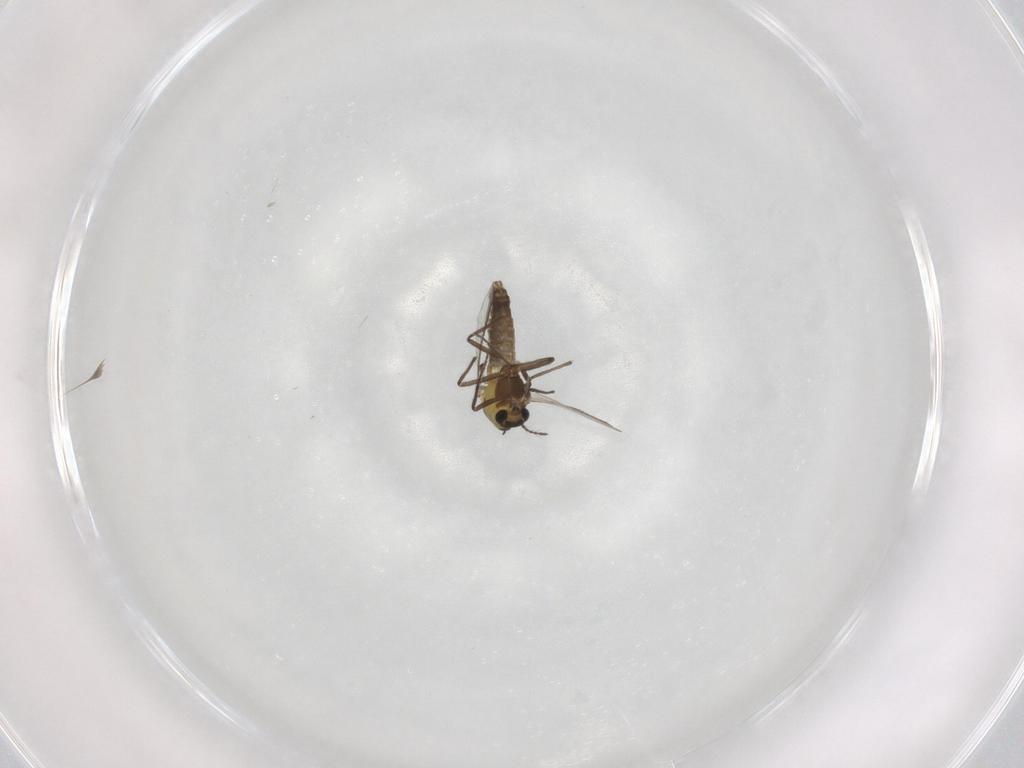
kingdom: Animalia
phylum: Arthropoda
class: Insecta
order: Diptera
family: Chironomidae
